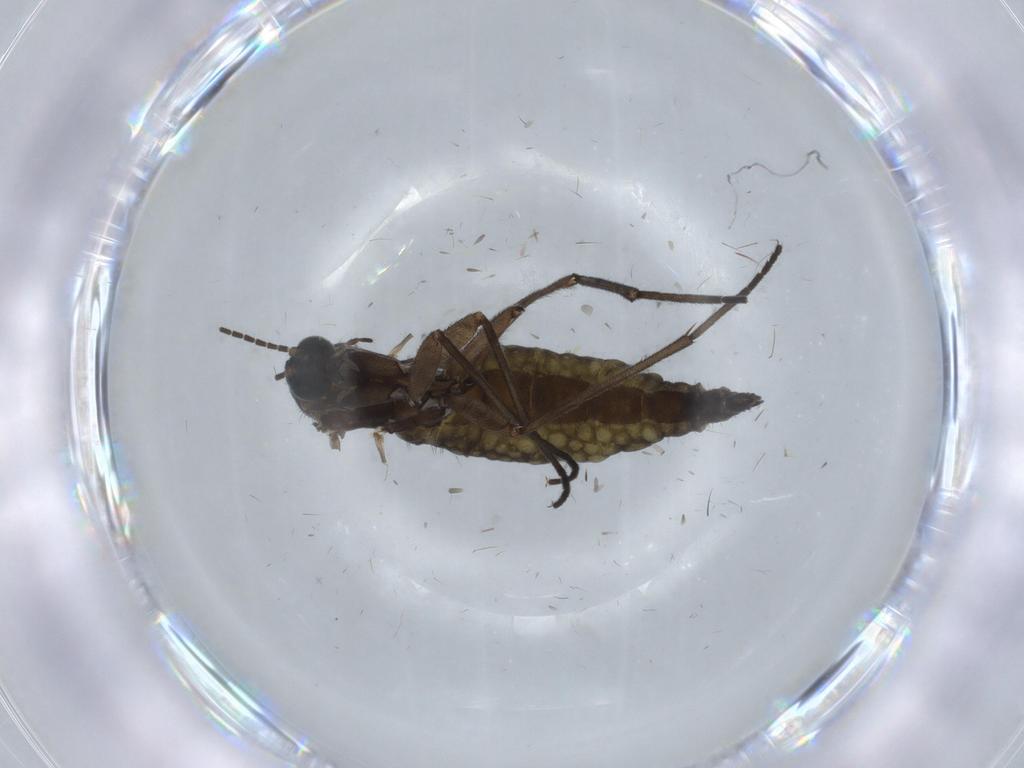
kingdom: Animalia
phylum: Arthropoda
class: Insecta
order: Diptera
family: Sciaridae
